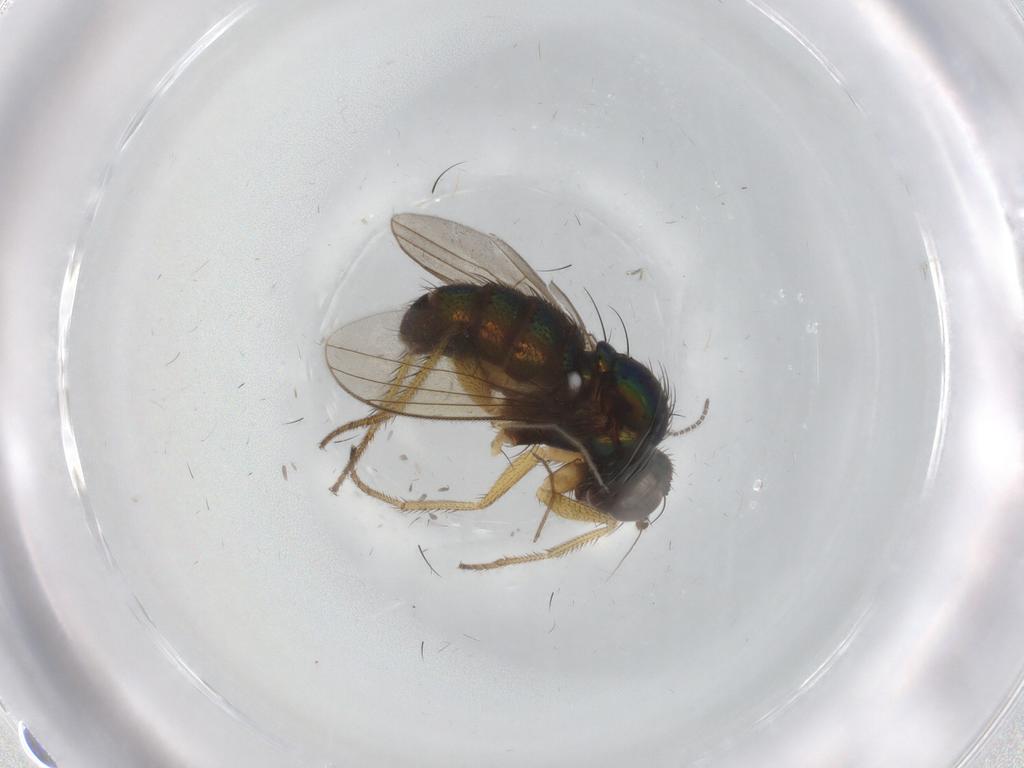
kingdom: Animalia
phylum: Arthropoda
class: Insecta
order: Diptera
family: Dolichopodidae
